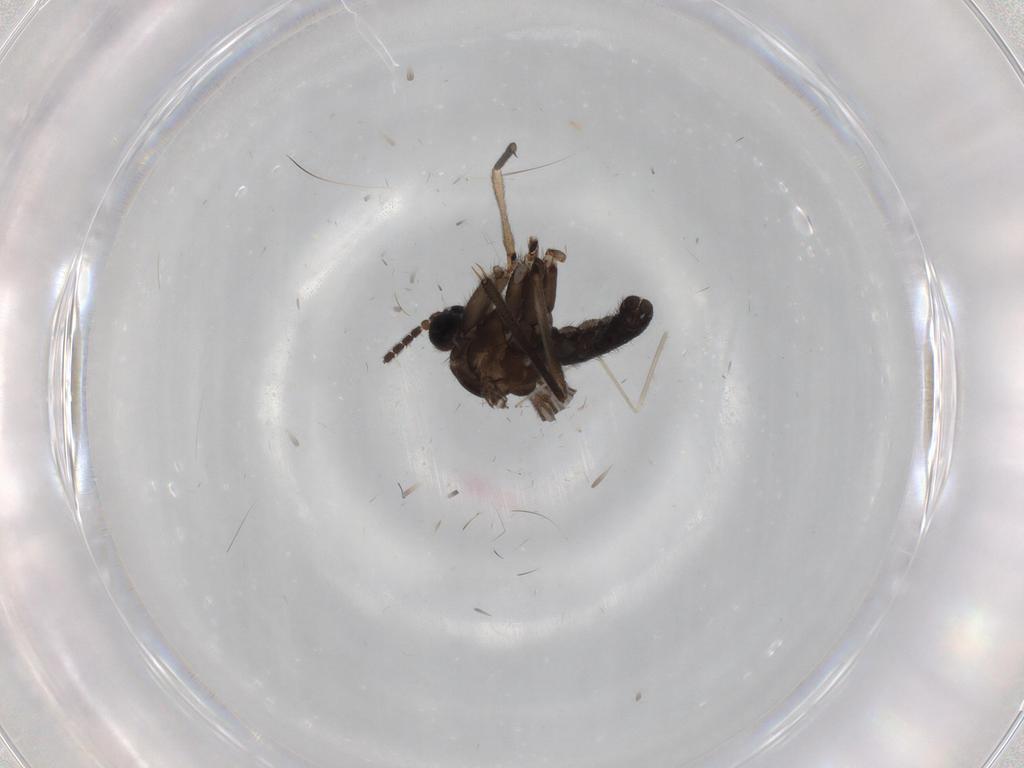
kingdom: Animalia
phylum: Arthropoda
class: Insecta
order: Diptera
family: Sciaridae
